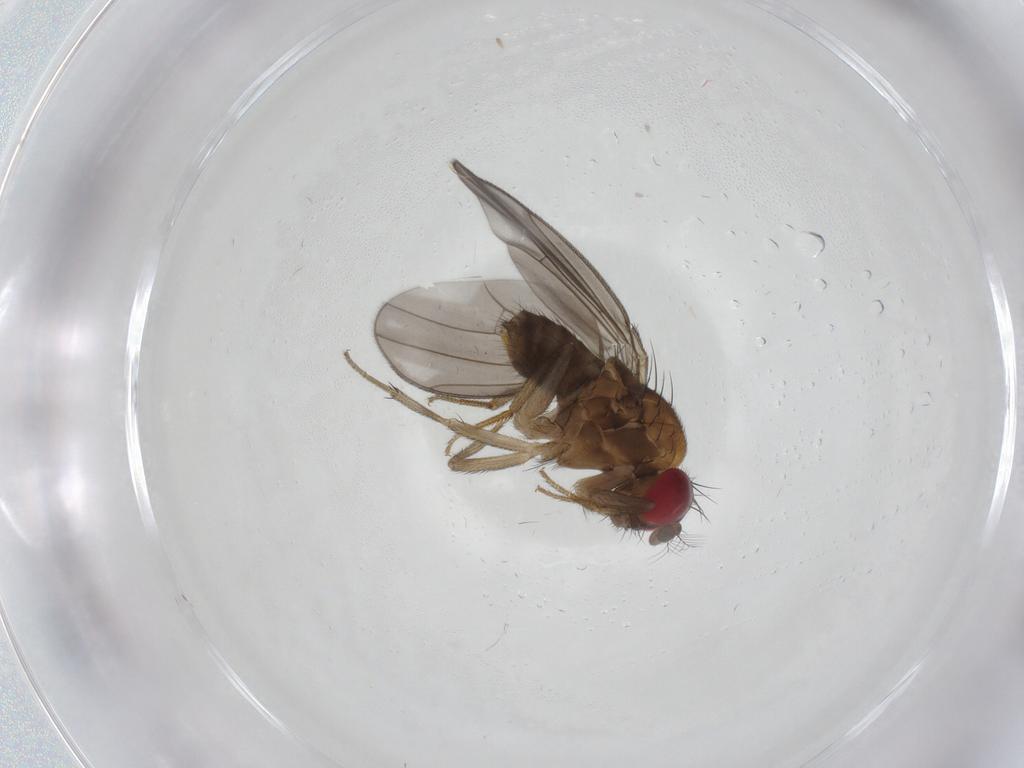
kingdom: Animalia
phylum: Arthropoda
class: Insecta
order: Diptera
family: Drosophilidae
